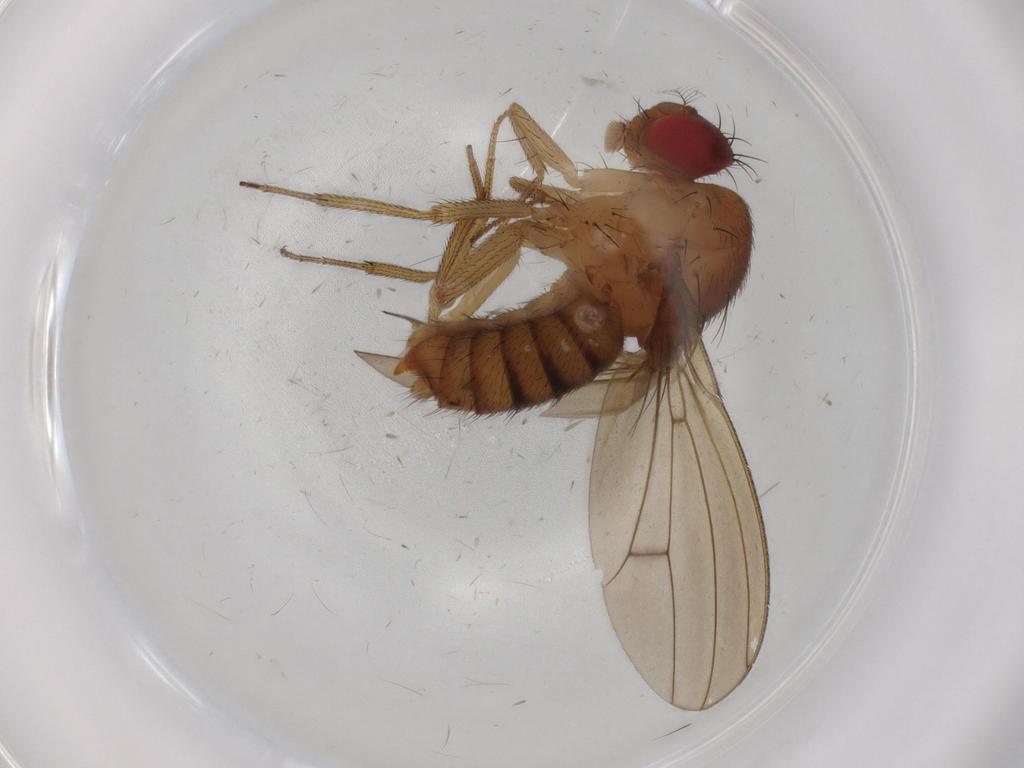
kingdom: Animalia
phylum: Arthropoda
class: Insecta
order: Diptera
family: Drosophilidae
